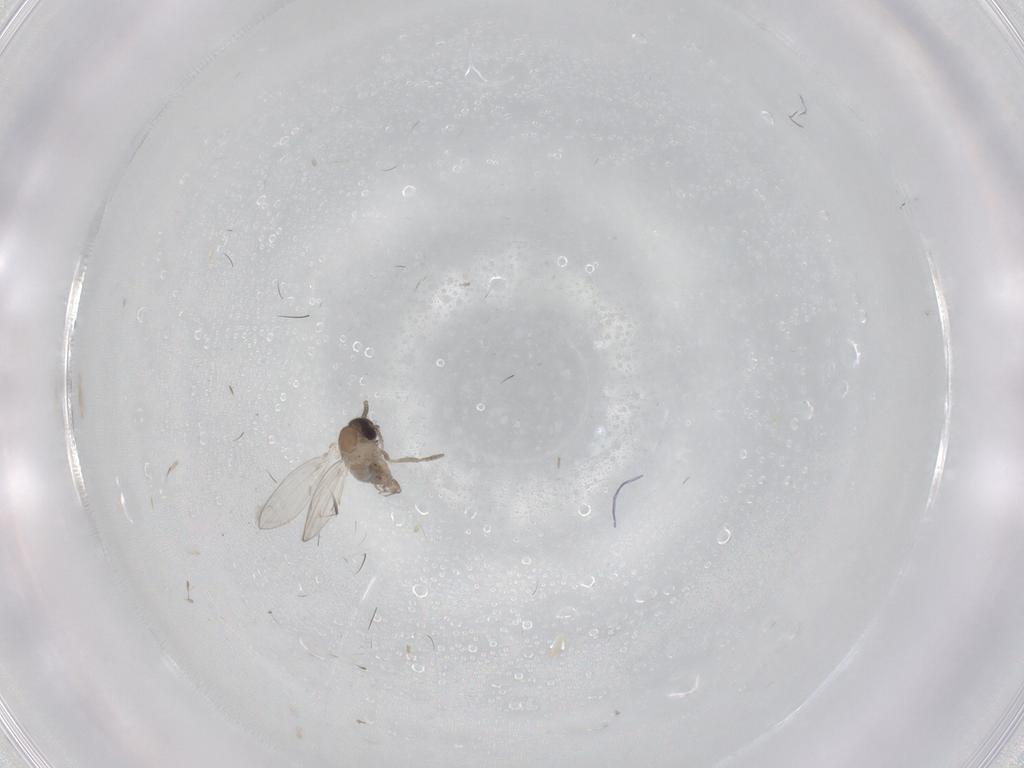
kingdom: Animalia
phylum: Arthropoda
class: Insecta
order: Diptera
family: Psychodidae
